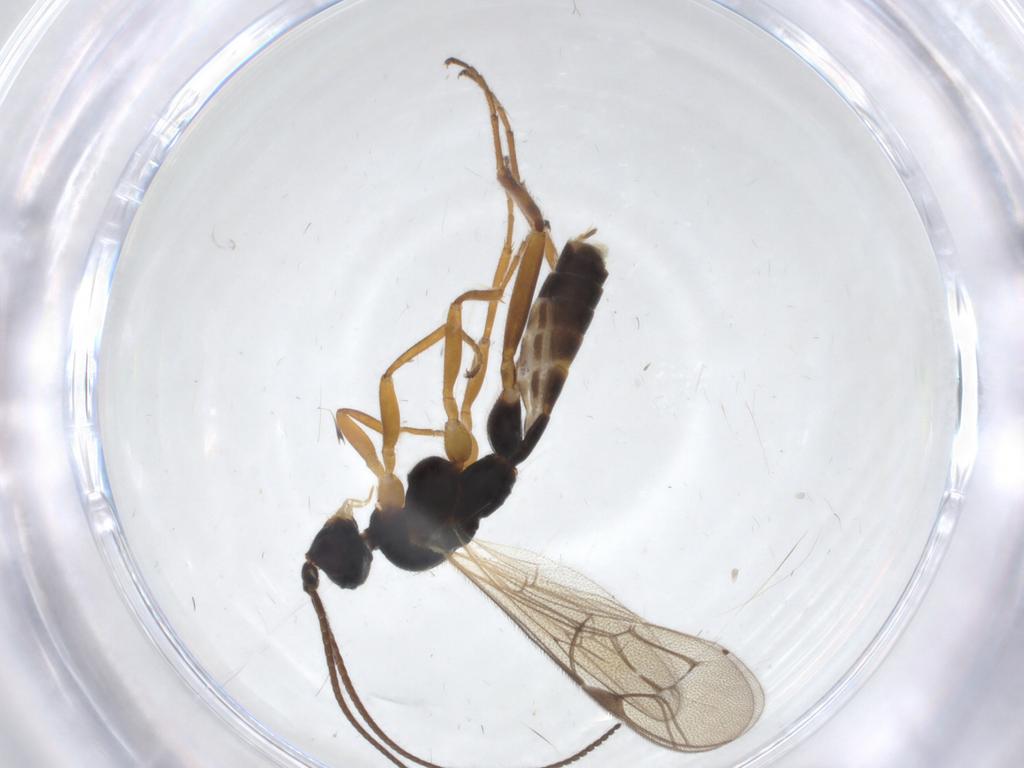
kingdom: Animalia
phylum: Arthropoda
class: Insecta
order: Hymenoptera
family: Ichneumonidae
